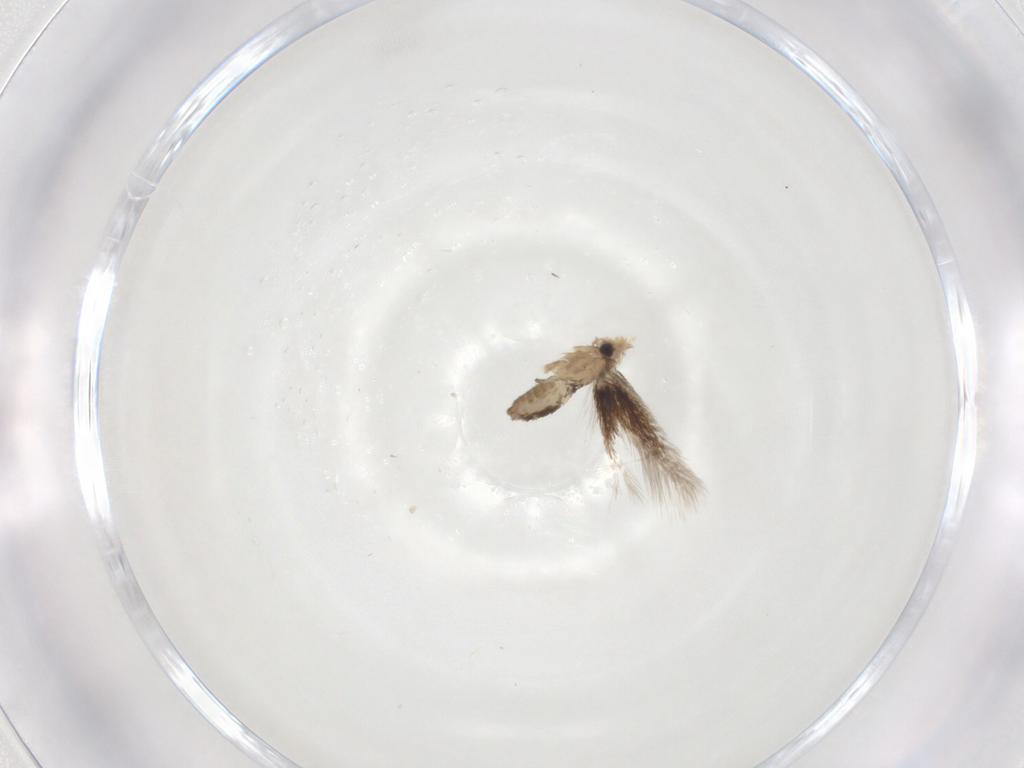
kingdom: Animalia
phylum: Arthropoda
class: Insecta
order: Lepidoptera
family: Nepticulidae
